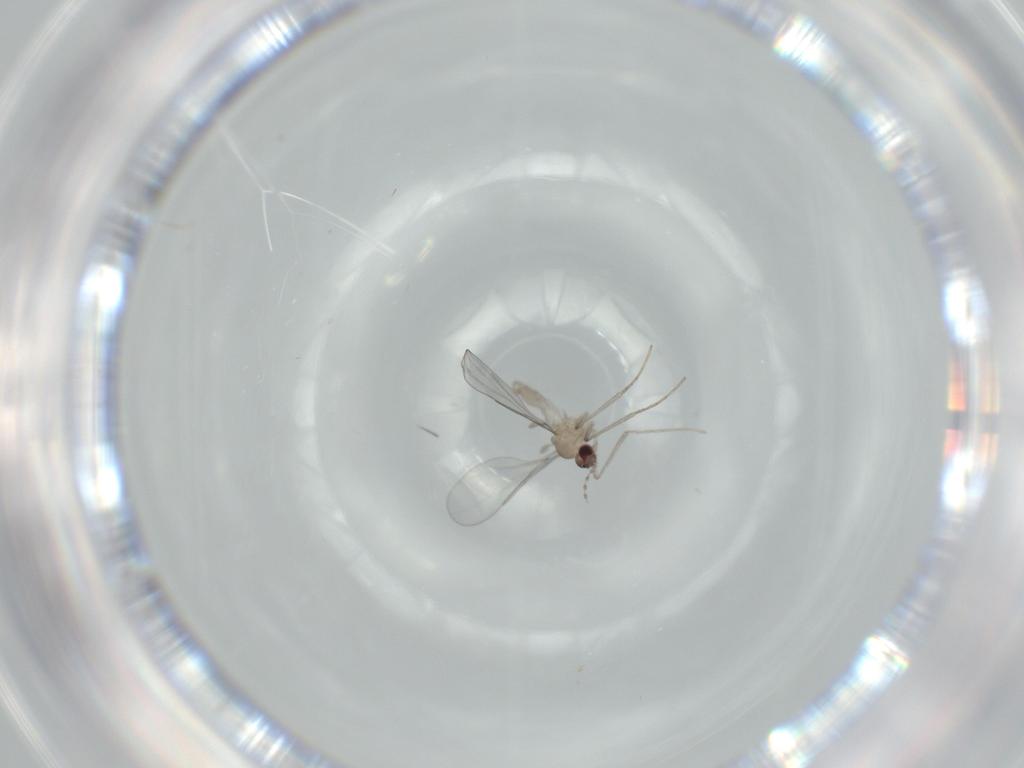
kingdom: Animalia
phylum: Arthropoda
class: Insecta
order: Diptera
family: Cecidomyiidae
